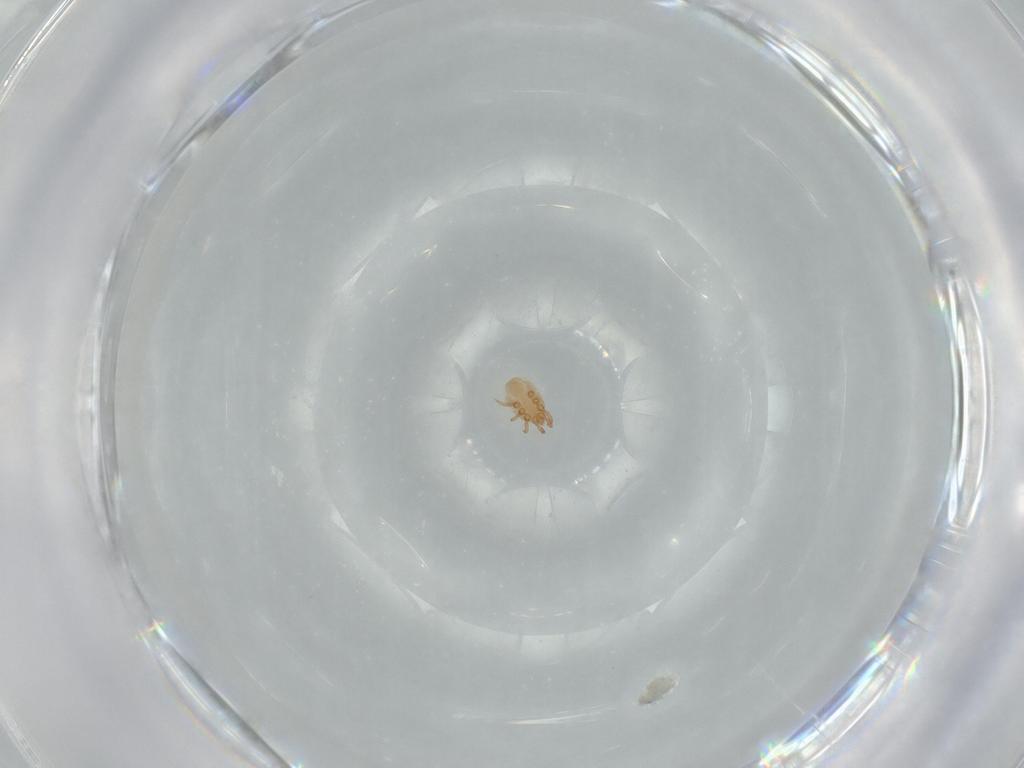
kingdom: Animalia
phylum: Arthropoda
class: Arachnida
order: Mesostigmata
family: Dinychidae
